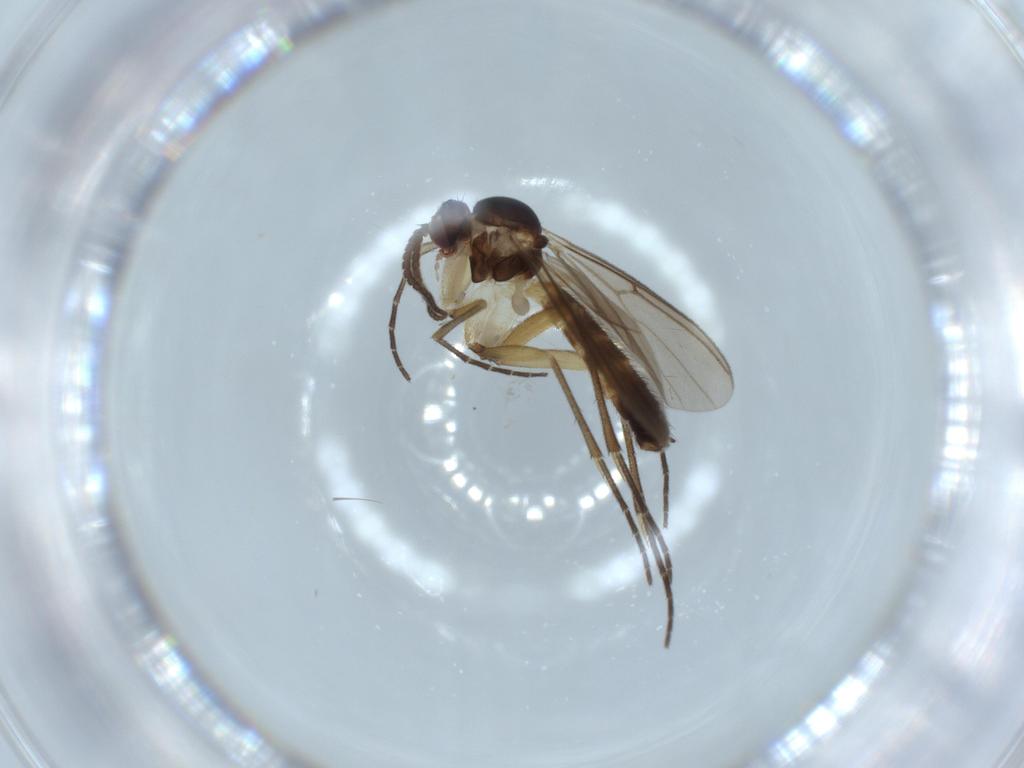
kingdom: Animalia
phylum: Arthropoda
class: Insecta
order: Diptera
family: Mycetophilidae
